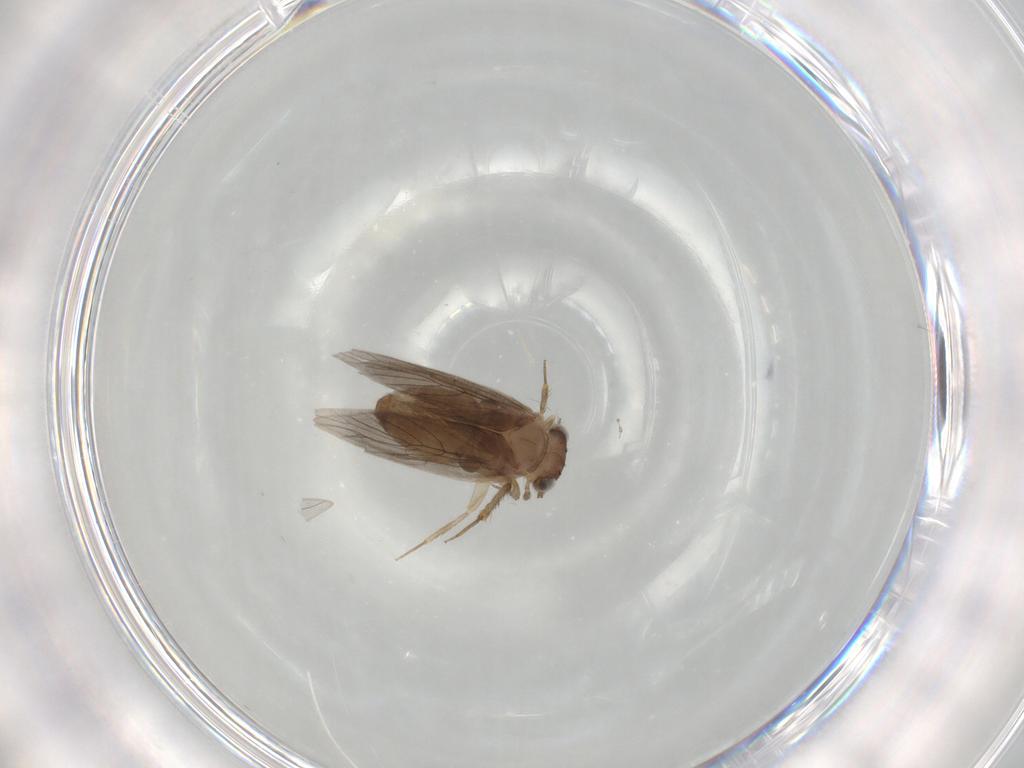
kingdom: Animalia
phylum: Arthropoda
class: Insecta
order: Psocodea
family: Lepidopsocidae
